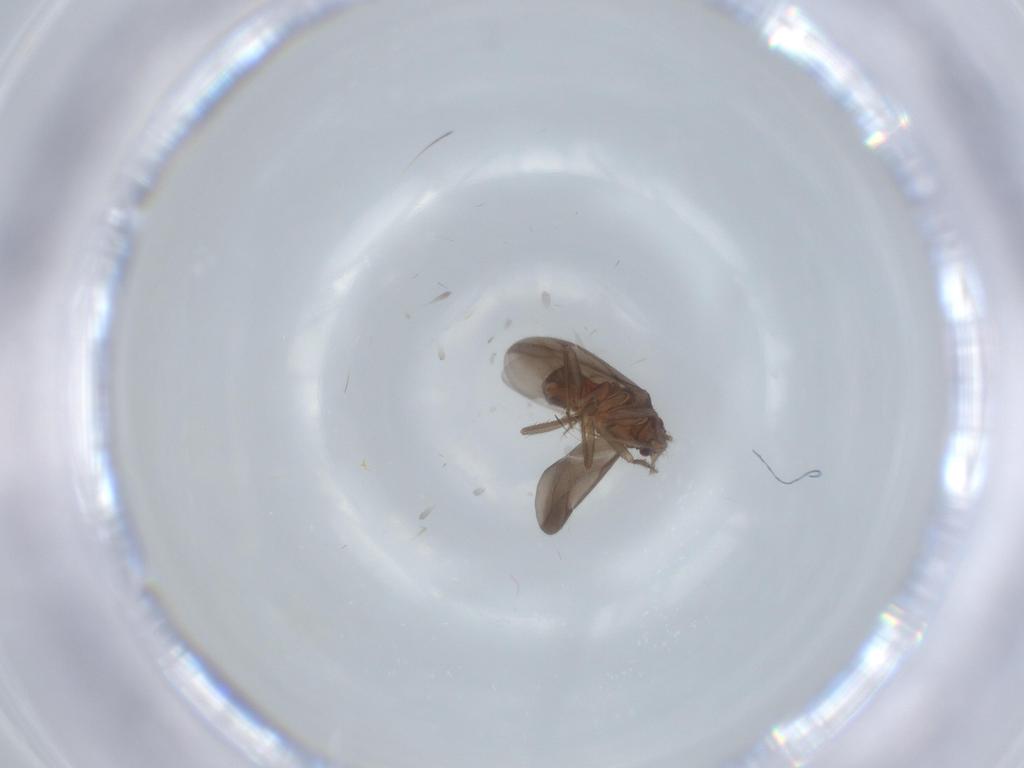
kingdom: Animalia
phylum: Arthropoda
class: Insecta
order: Hemiptera
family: Ceratocombidae
